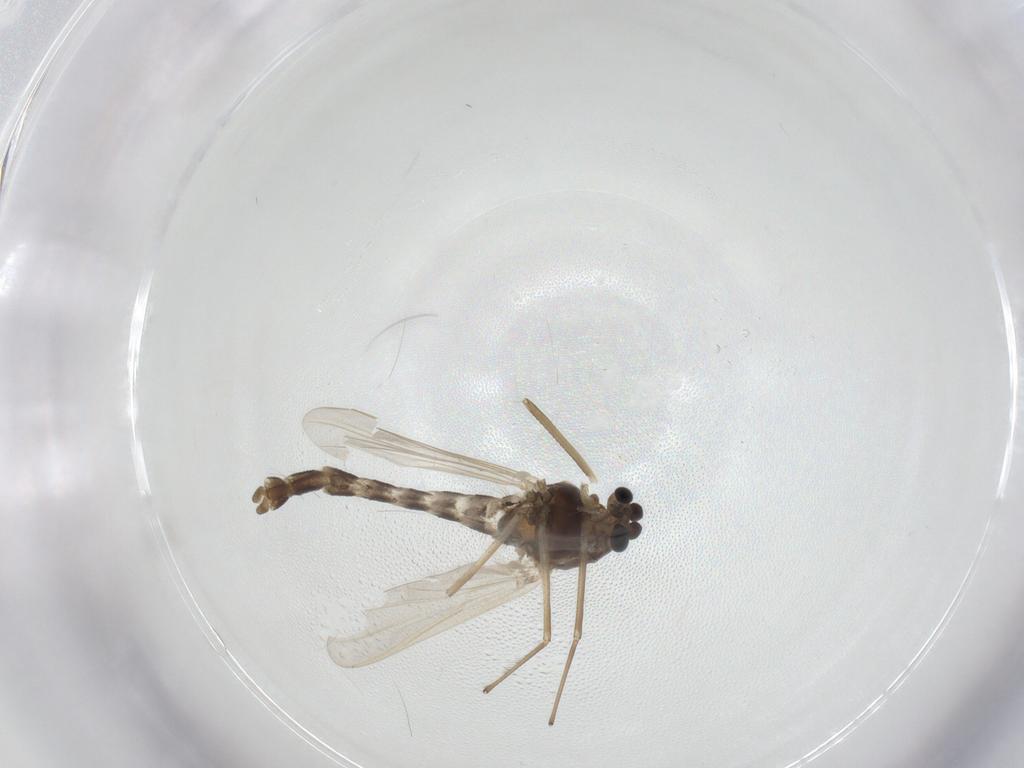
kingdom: Animalia
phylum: Arthropoda
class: Insecta
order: Diptera
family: Chironomidae
